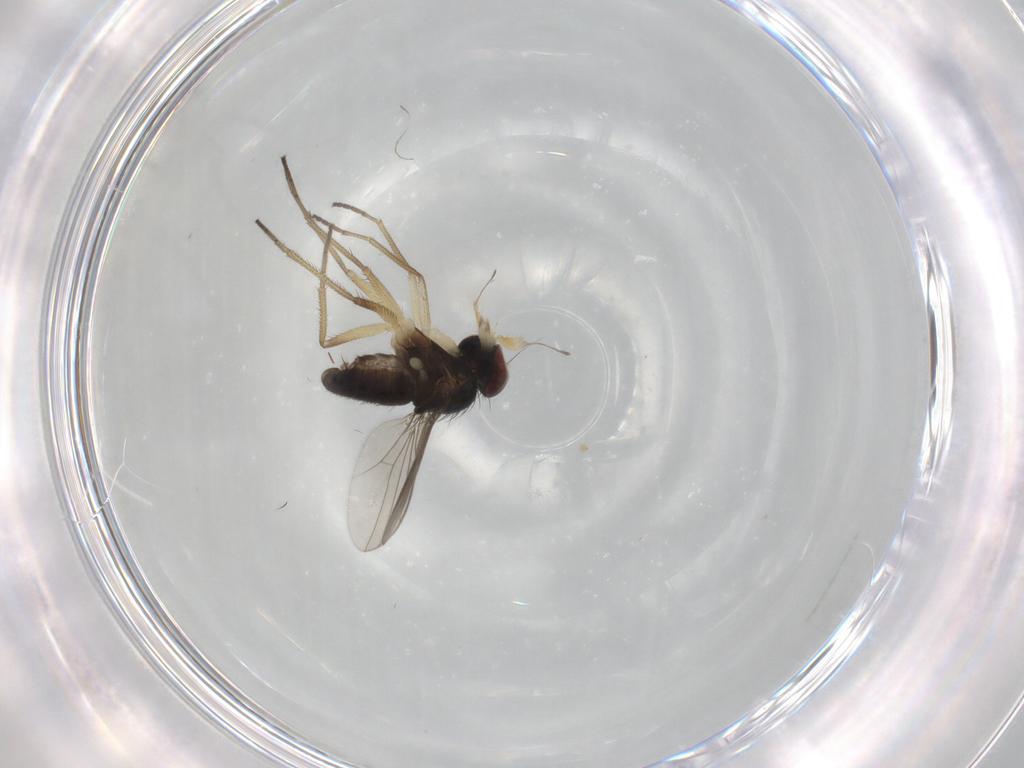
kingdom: Animalia
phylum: Arthropoda
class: Insecta
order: Diptera
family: Dolichopodidae
